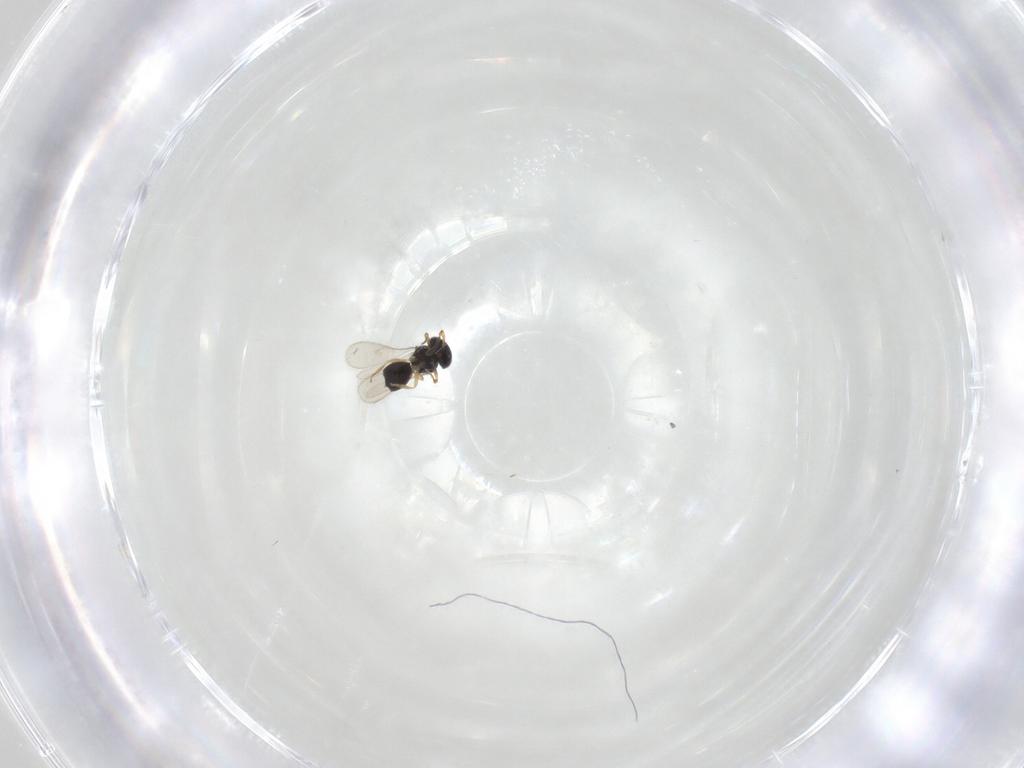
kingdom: Animalia
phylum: Arthropoda
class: Insecta
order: Hymenoptera
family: Scelionidae
